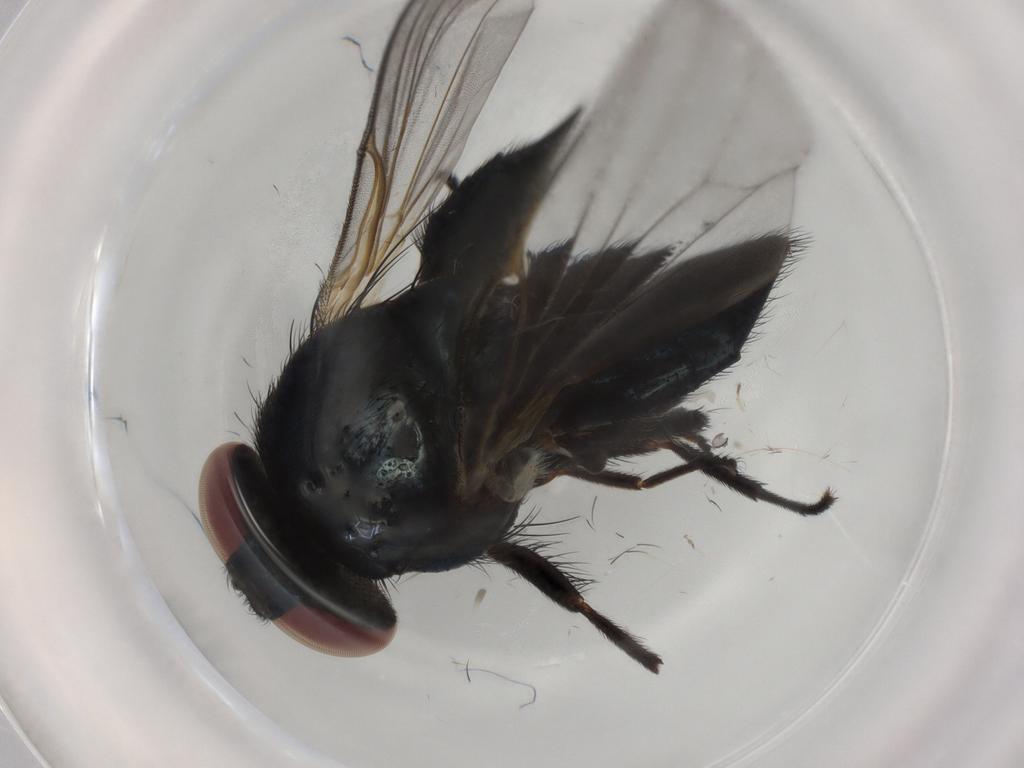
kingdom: Animalia
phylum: Arthropoda
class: Insecta
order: Diptera
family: Lonchaeidae
